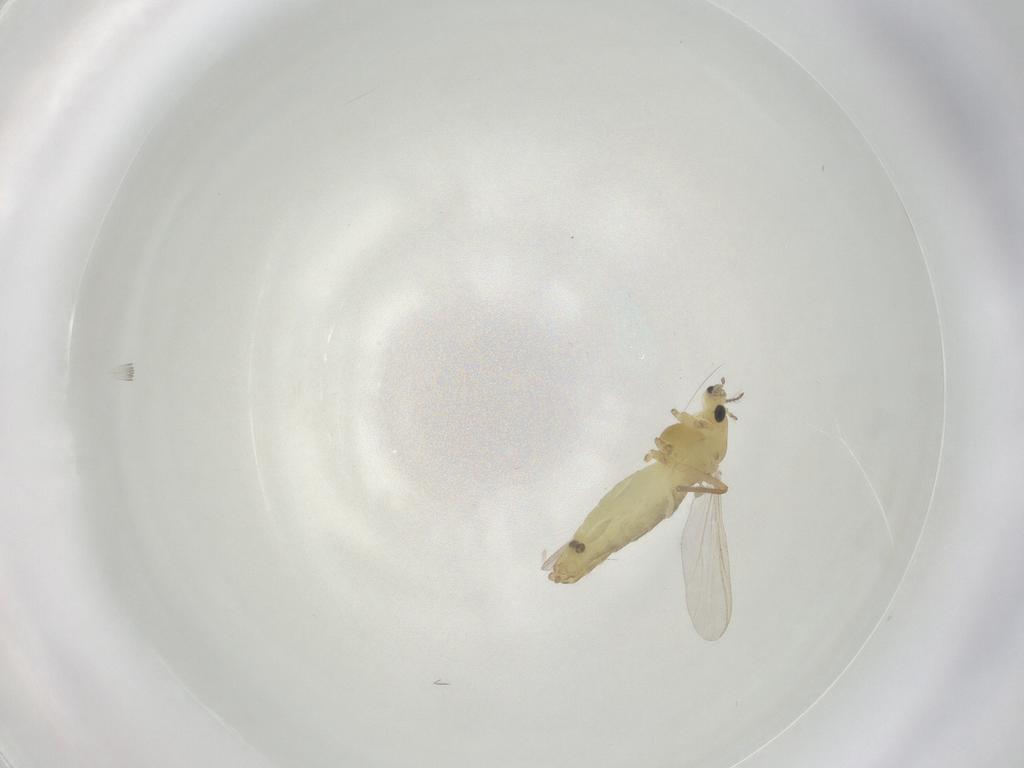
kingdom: Animalia
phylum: Arthropoda
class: Insecta
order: Diptera
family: Chironomidae
